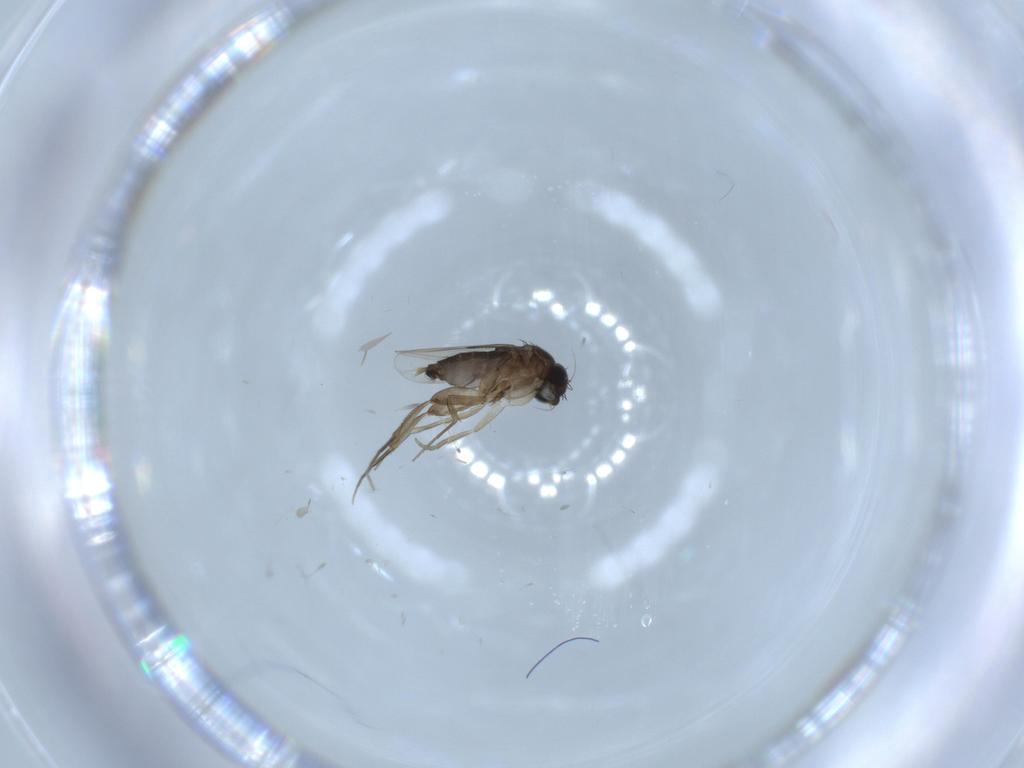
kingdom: Animalia
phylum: Arthropoda
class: Insecta
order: Diptera
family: Phoridae
